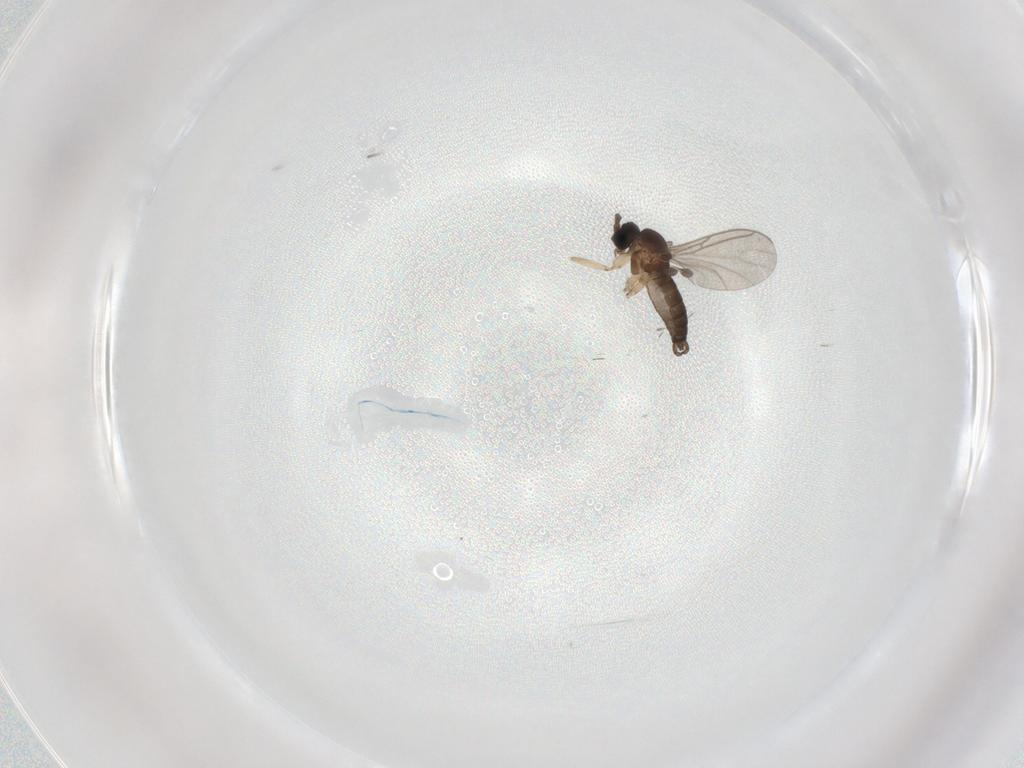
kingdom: Animalia
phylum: Arthropoda
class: Insecta
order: Diptera
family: Sciaridae
